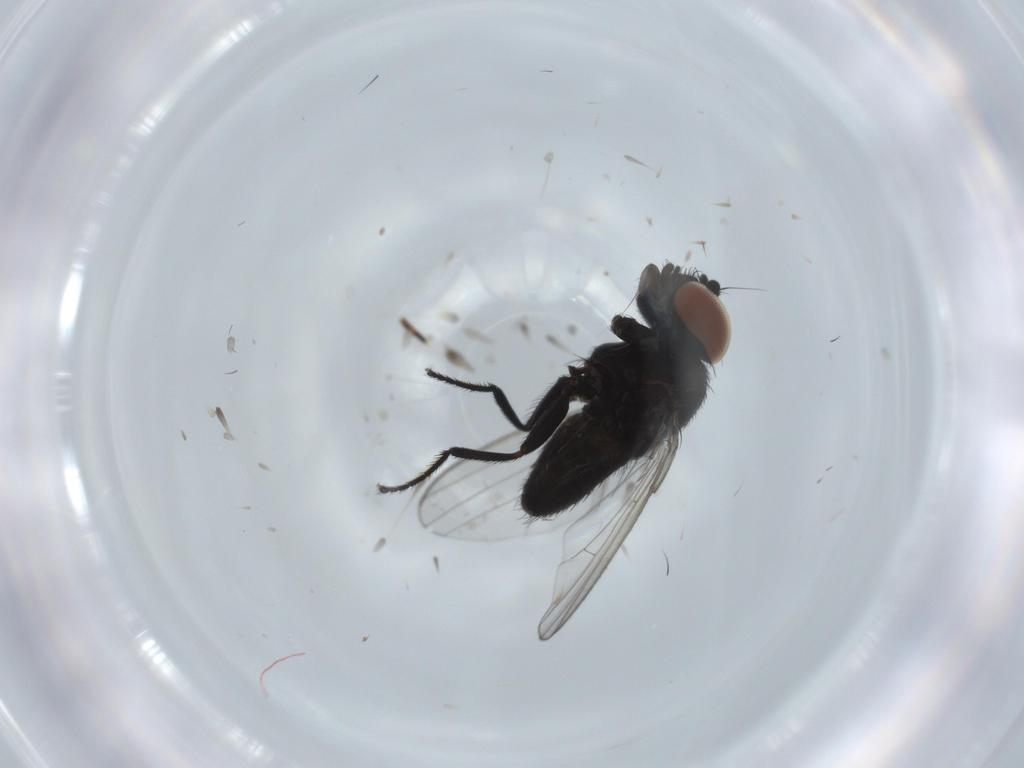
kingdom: Animalia
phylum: Arthropoda
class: Insecta
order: Diptera
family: Milichiidae
